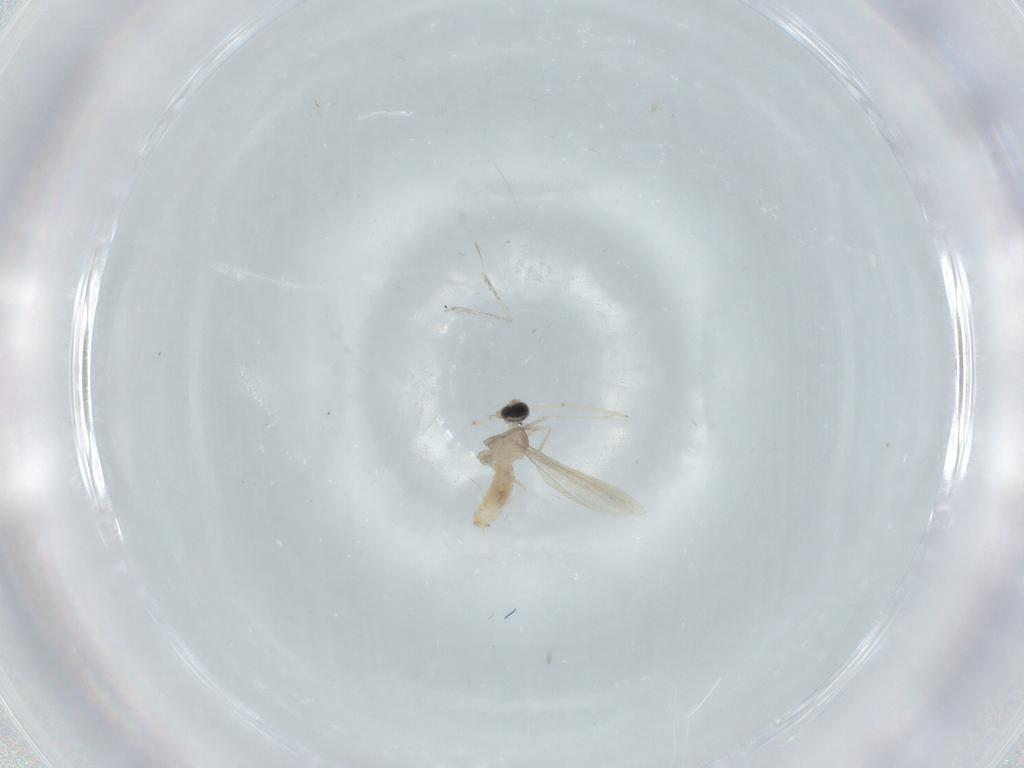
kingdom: Animalia
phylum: Arthropoda
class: Insecta
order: Diptera
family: Cecidomyiidae
